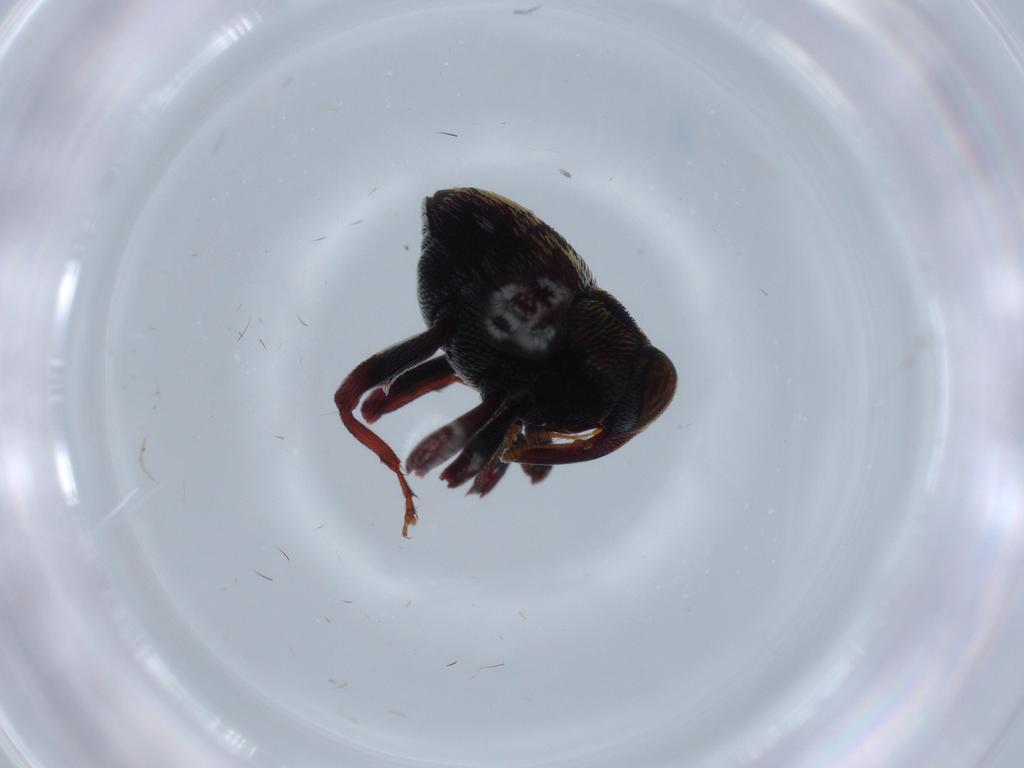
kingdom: Animalia
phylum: Arthropoda
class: Insecta
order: Coleoptera
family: Curculionidae
